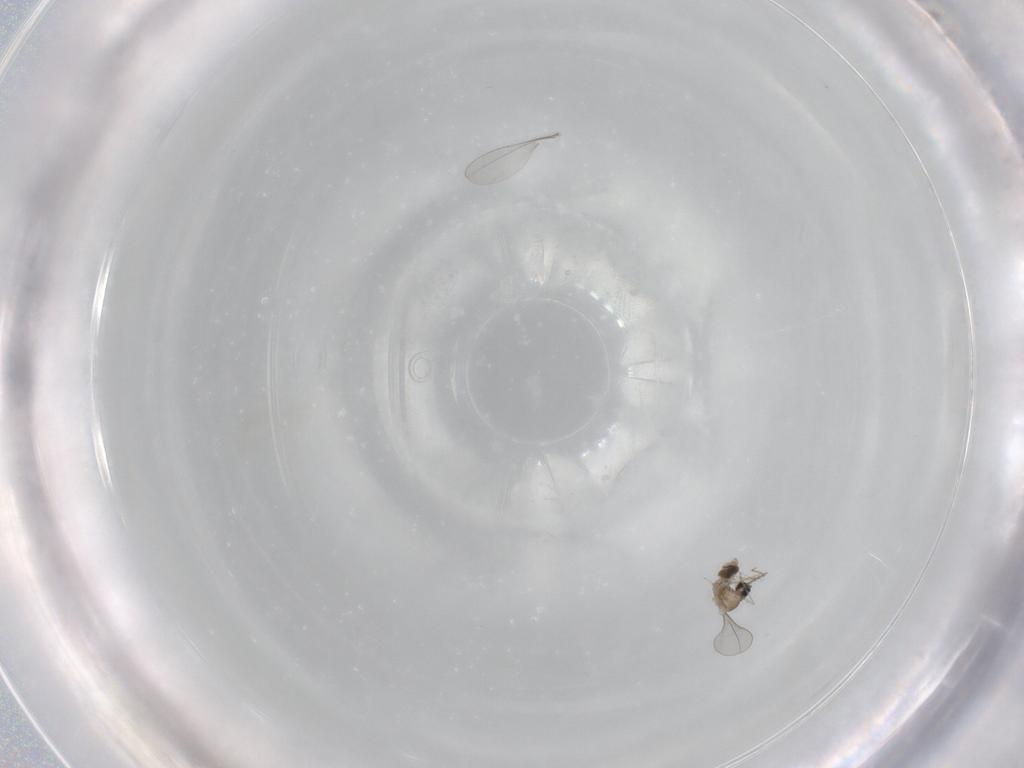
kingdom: Animalia
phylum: Arthropoda
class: Insecta
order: Diptera
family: Cecidomyiidae
